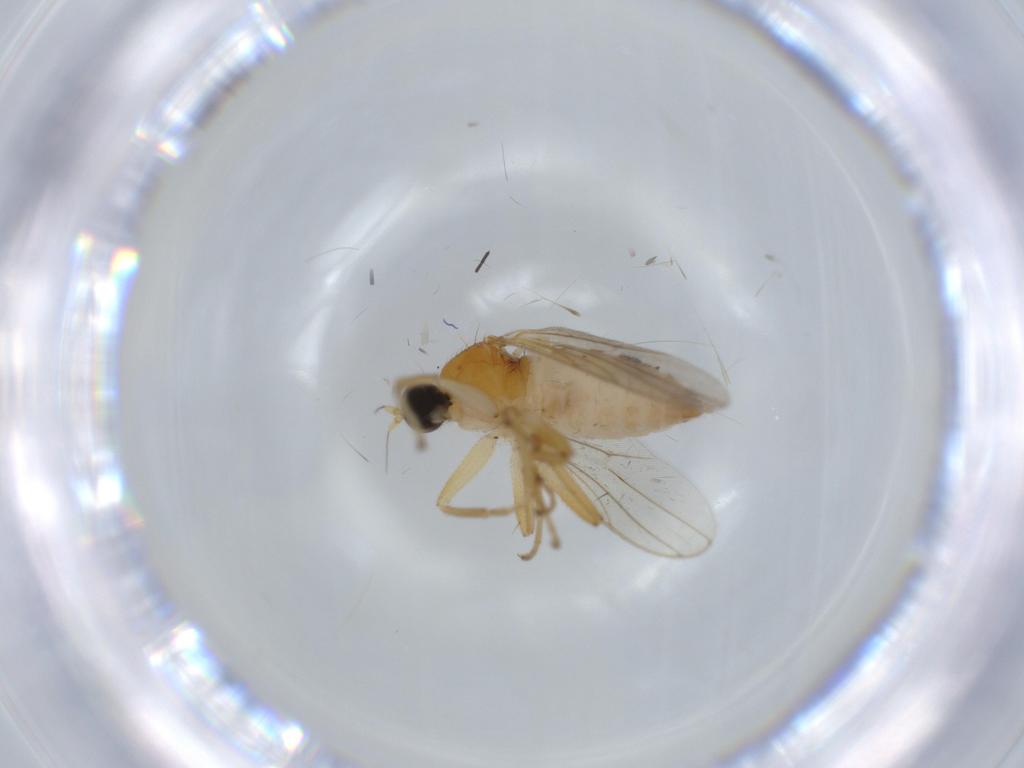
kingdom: Animalia
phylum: Arthropoda
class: Insecta
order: Diptera
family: Hybotidae
